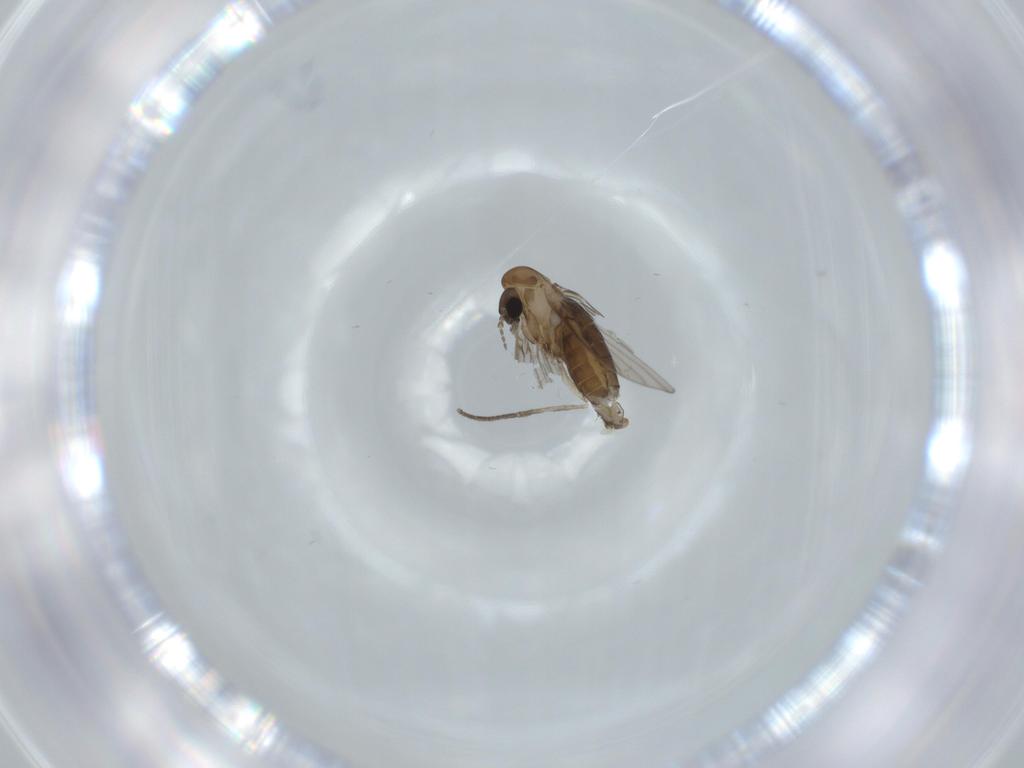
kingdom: Animalia
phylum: Arthropoda
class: Insecta
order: Diptera
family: Psychodidae
